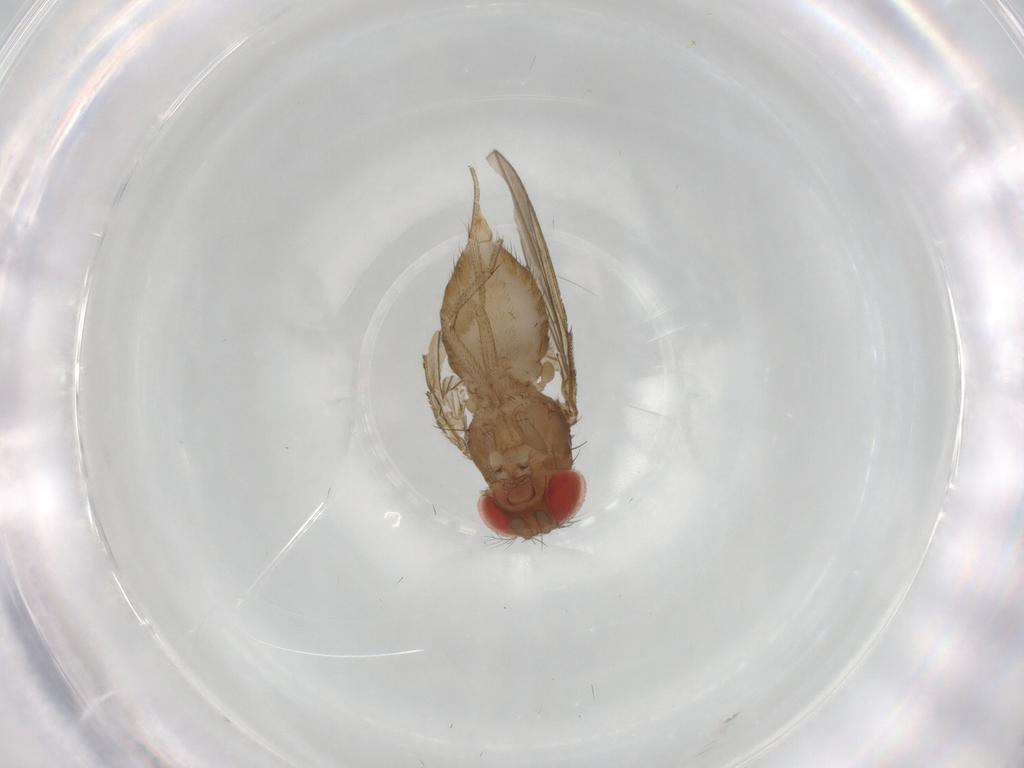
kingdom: Animalia
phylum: Arthropoda
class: Insecta
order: Diptera
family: Drosophilidae
